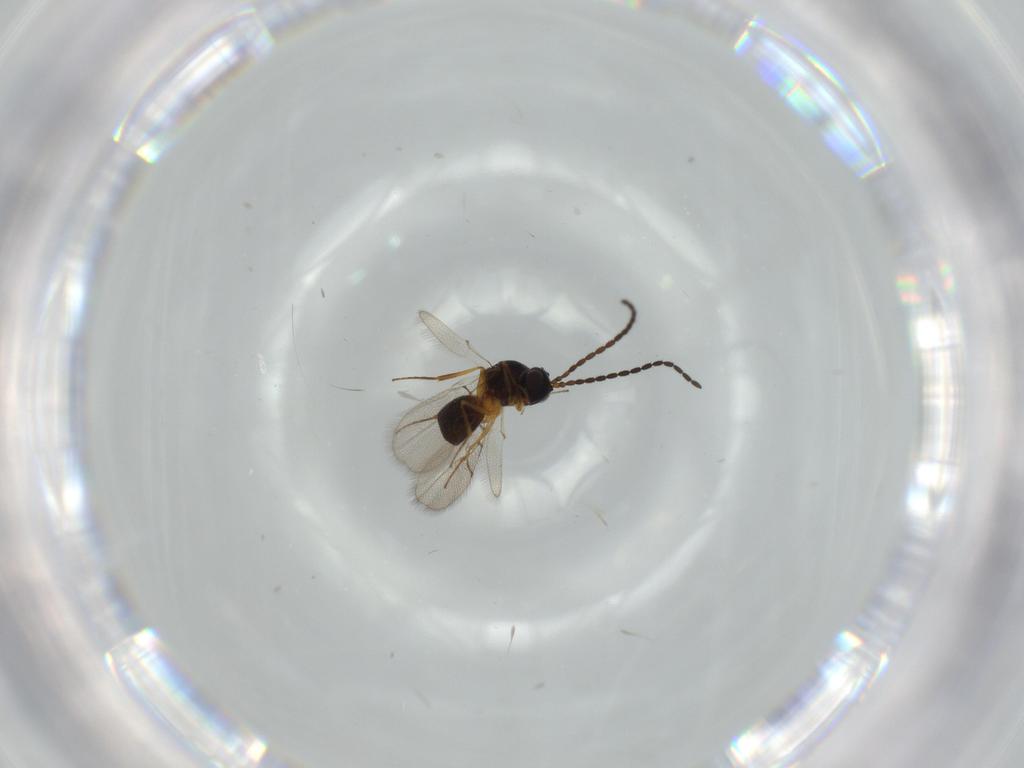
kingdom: Animalia
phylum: Arthropoda
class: Insecta
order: Hymenoptera
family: Figitidae
